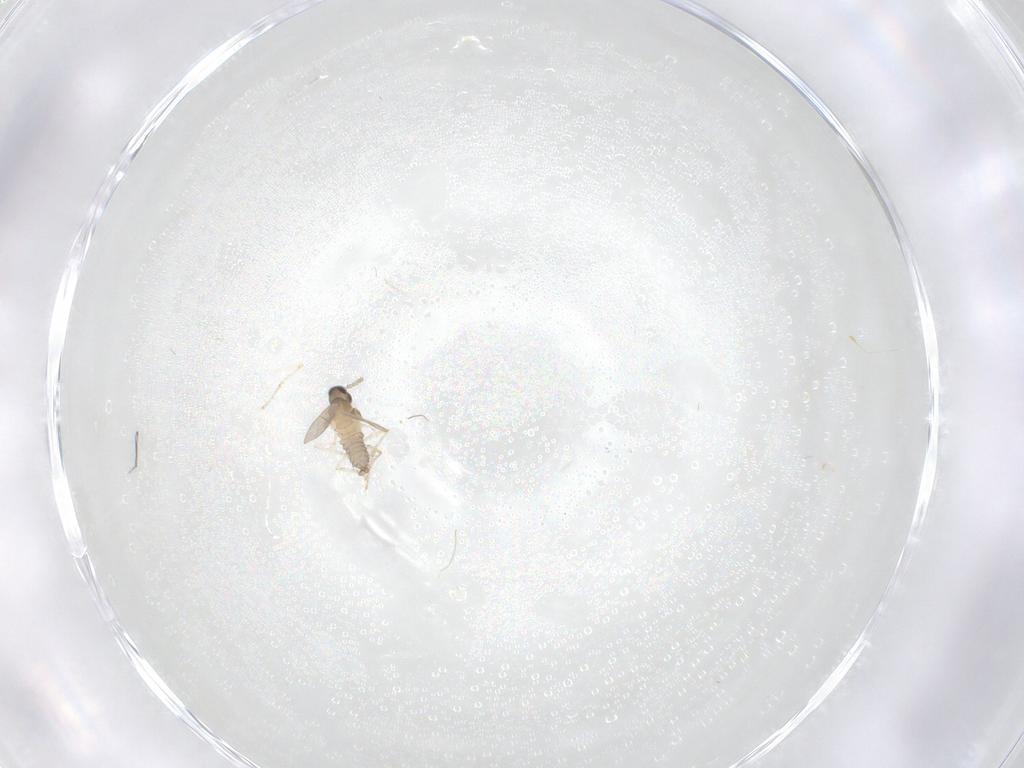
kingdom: Animalia
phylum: Arthropoda
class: Insecta
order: Diptera
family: Cecidomyiidae
